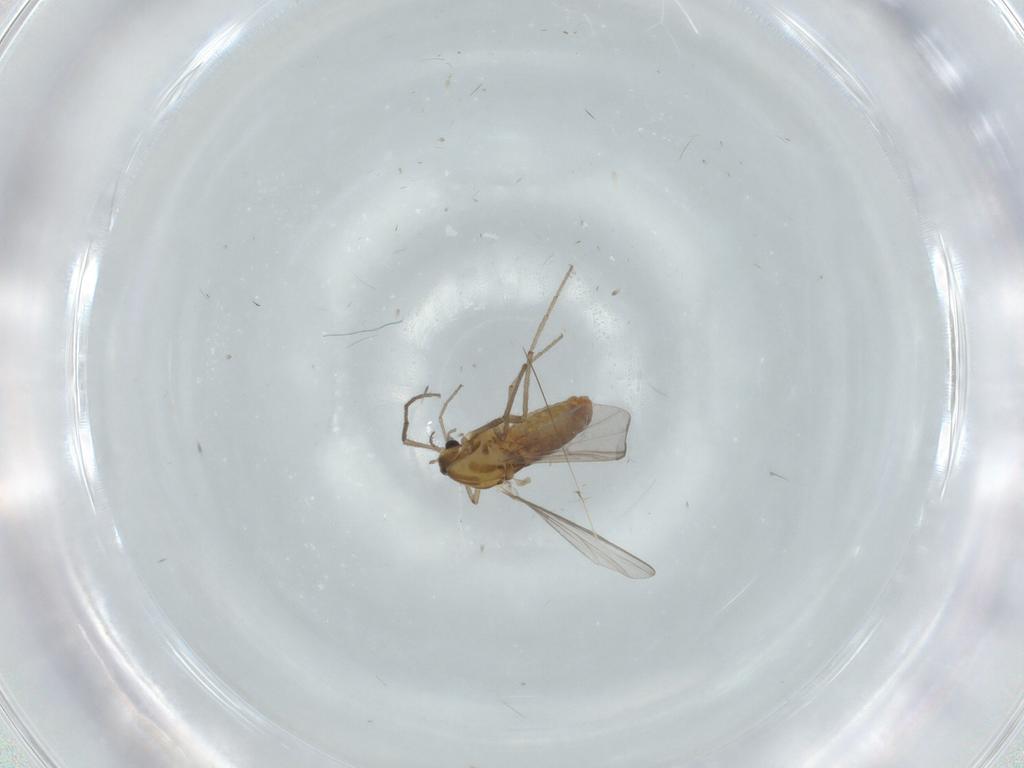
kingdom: Animalia
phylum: Arthropoda
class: Insecta
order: Diptera
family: Chironomidae
